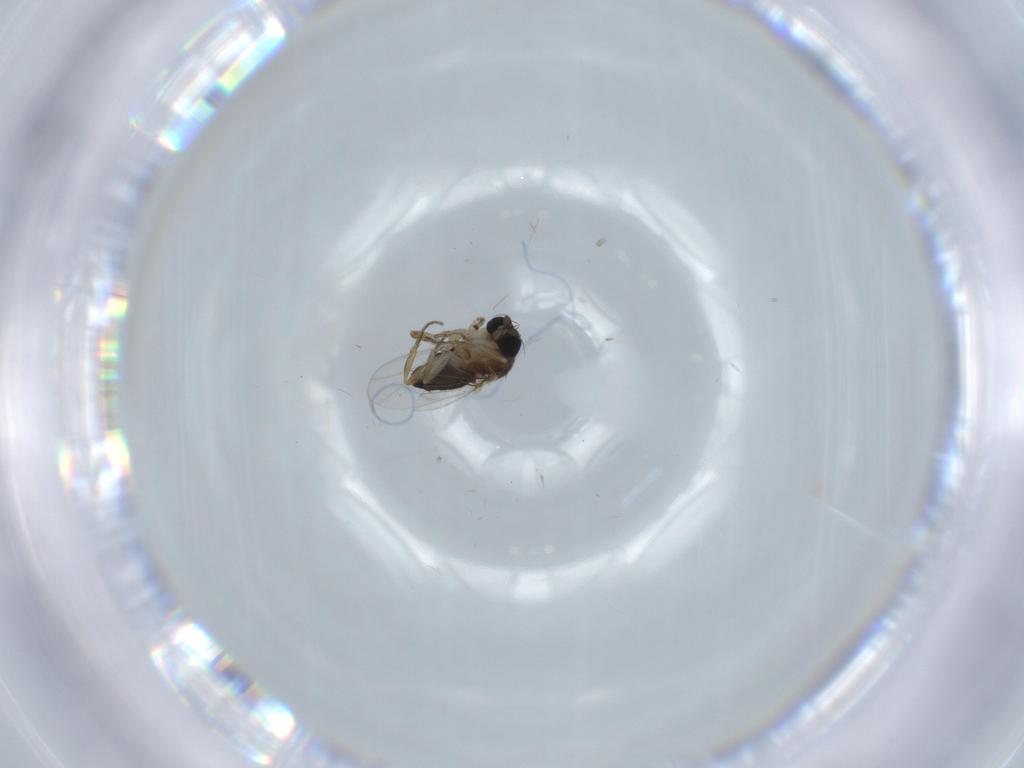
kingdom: Animalia
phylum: Arthropoda
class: Insecta
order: Diptera
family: Phoridae
